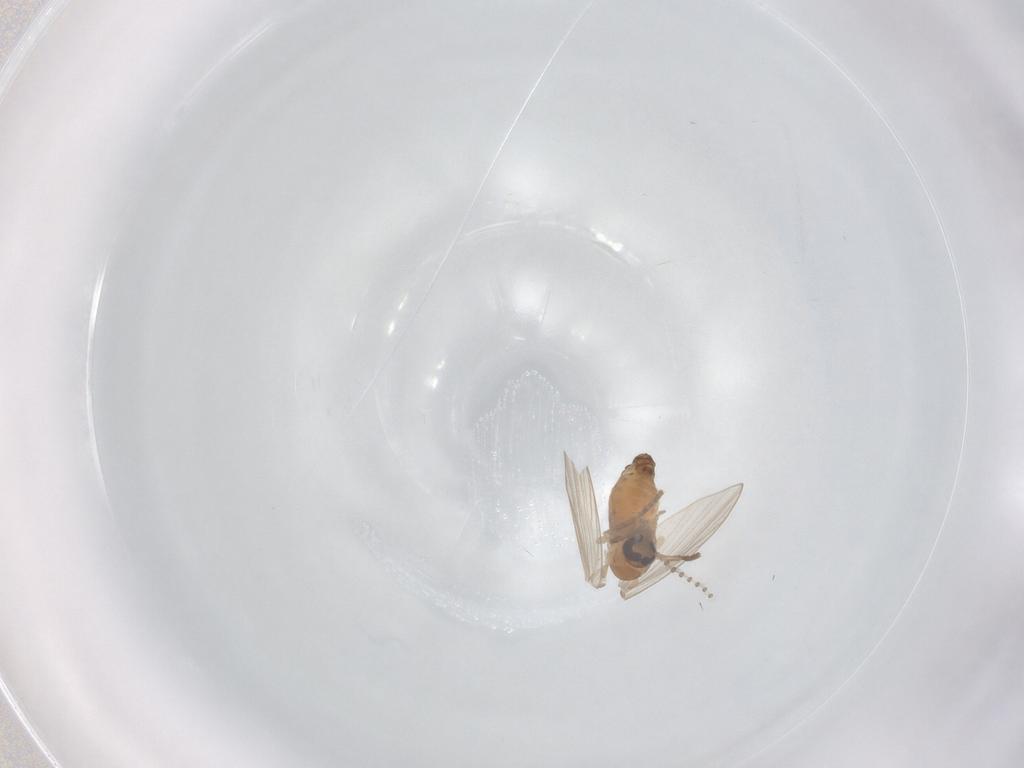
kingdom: Animalia
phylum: Arthropoda
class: Insecta
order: Diptera
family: Psychodidae
